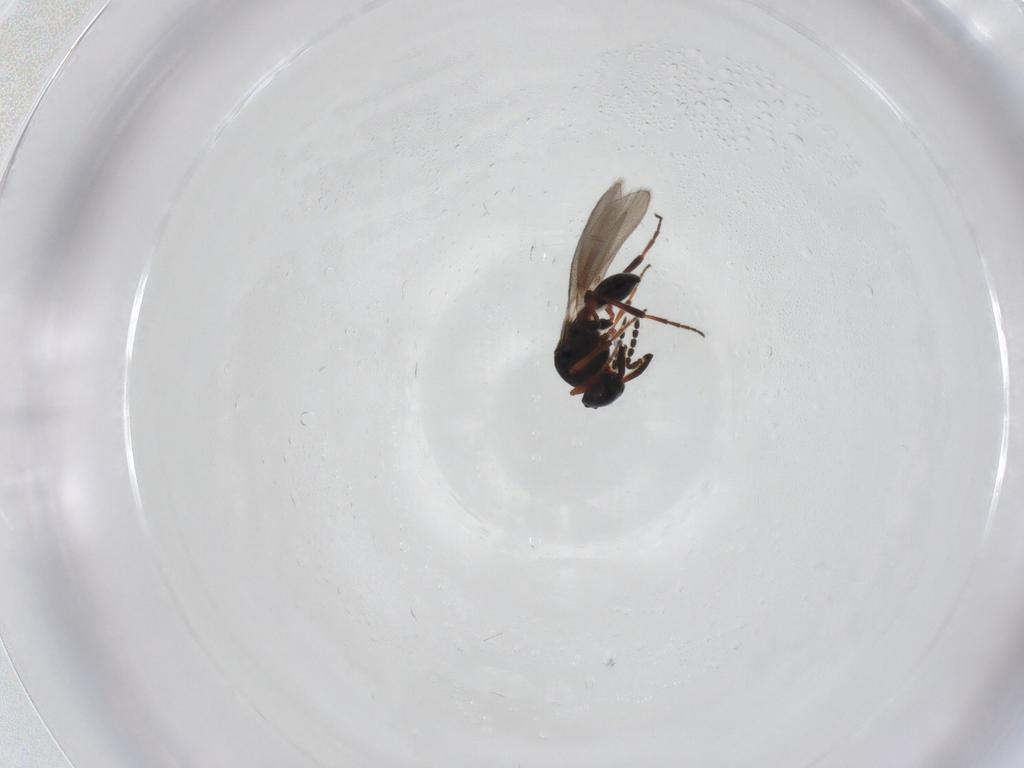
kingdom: Animalia
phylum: Arthropoda
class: Insecta
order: Hymenoptera
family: Platygastridae
